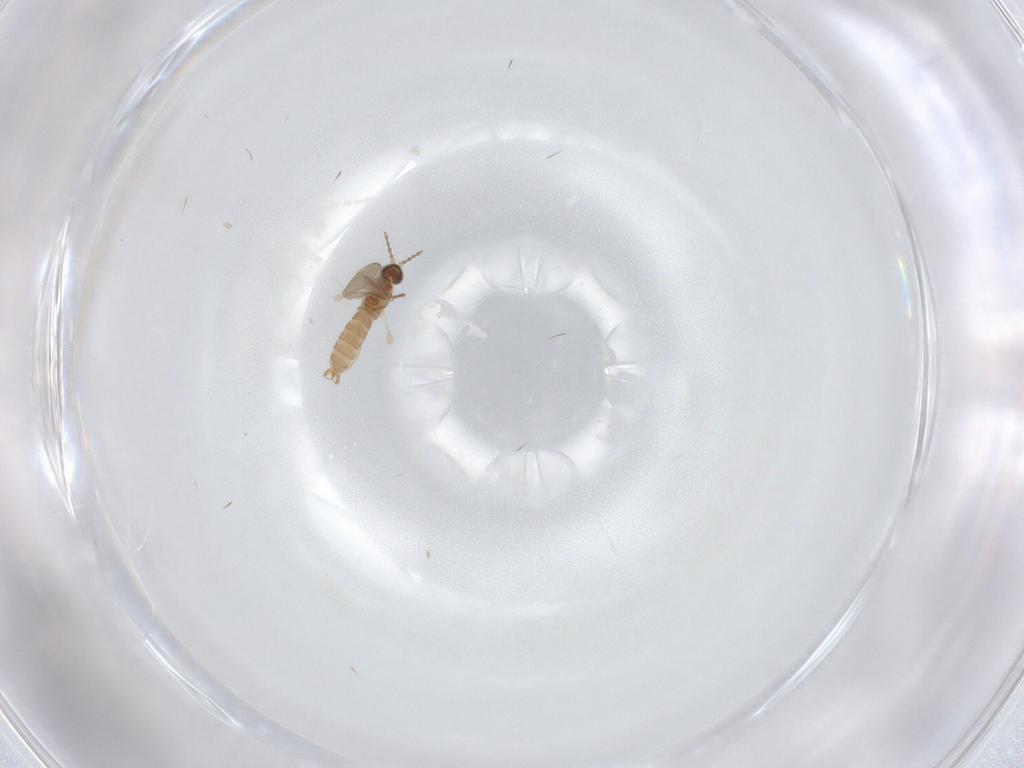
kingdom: Animalia
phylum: Arthropoda
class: Insecta
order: Diptera
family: Cecidomyiidae
